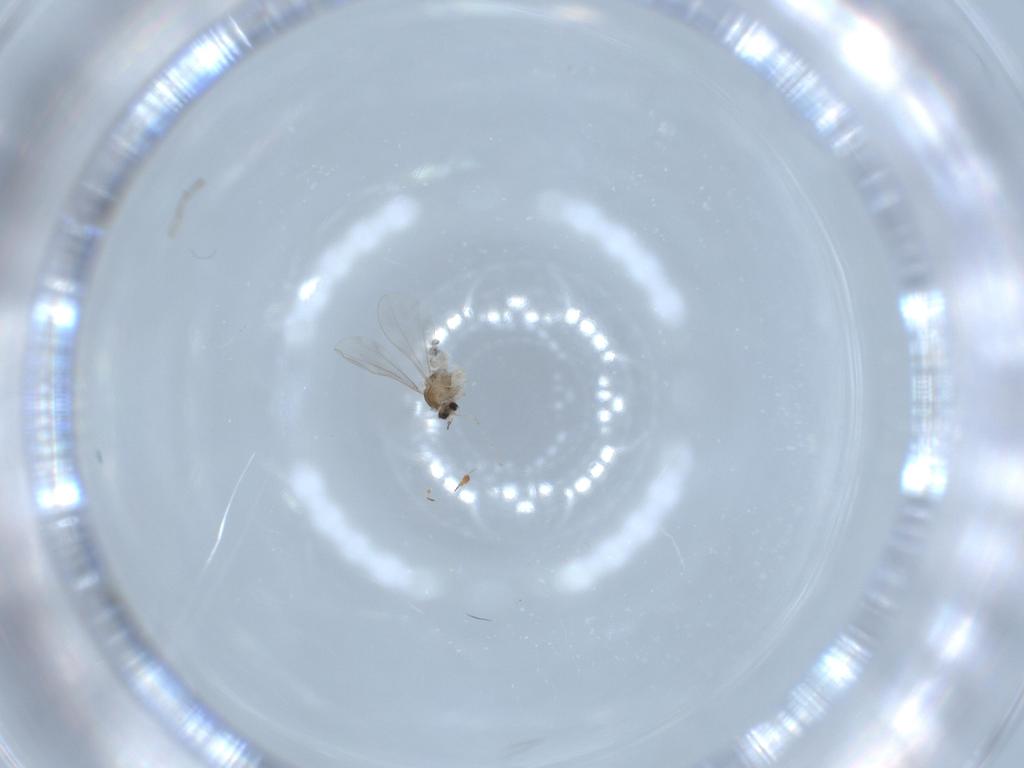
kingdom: Animalia
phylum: Arthropoda
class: Insecta
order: Diptera
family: Cecidomyiidae
